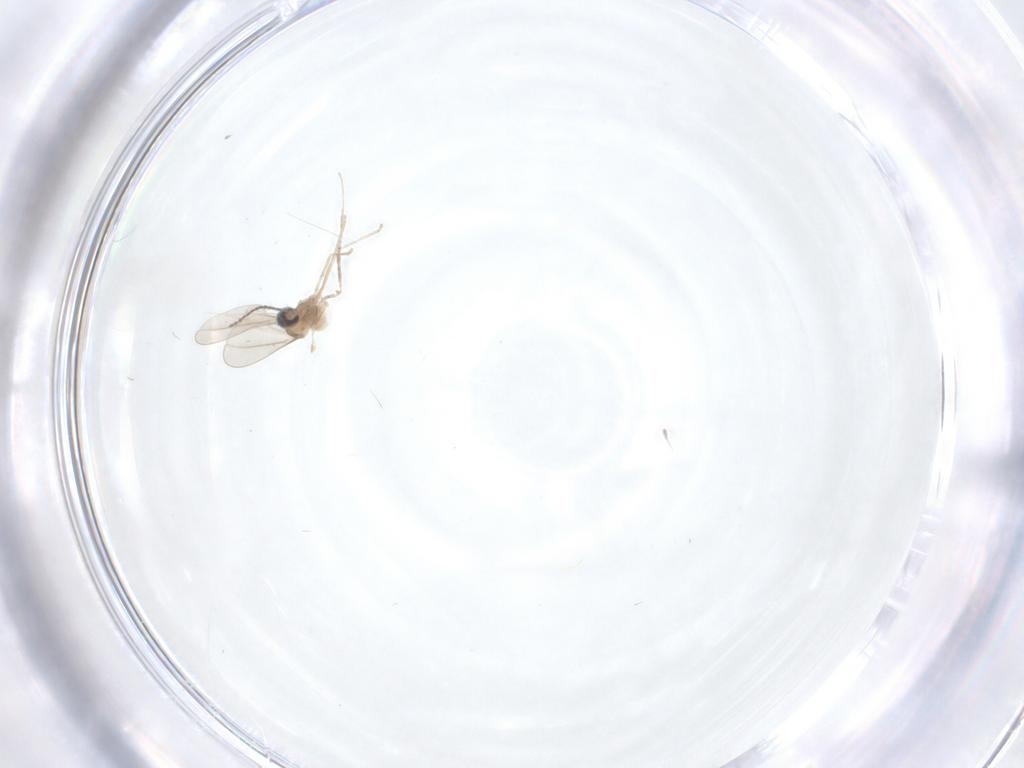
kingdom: Animalia
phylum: Arthropoda
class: Insecta
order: Diptera
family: Cecidomyiidae
